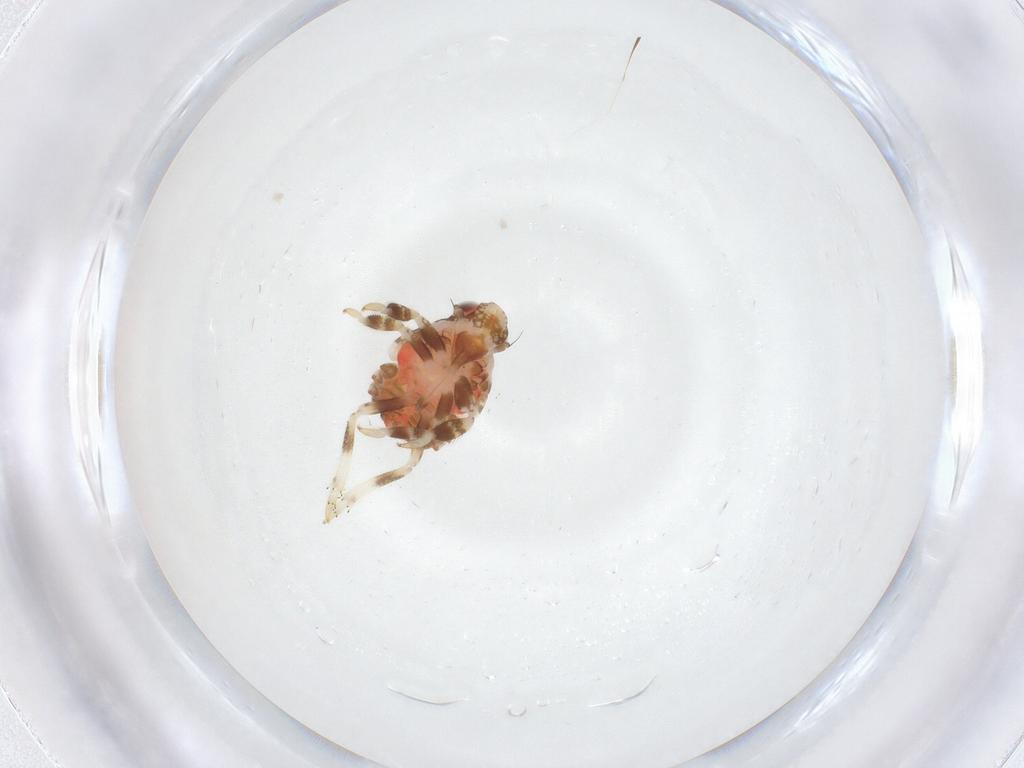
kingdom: Animalia
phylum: Arthropoda
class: Insecta
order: Hemiptera
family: Fulgoroidea_incertae_sedis
